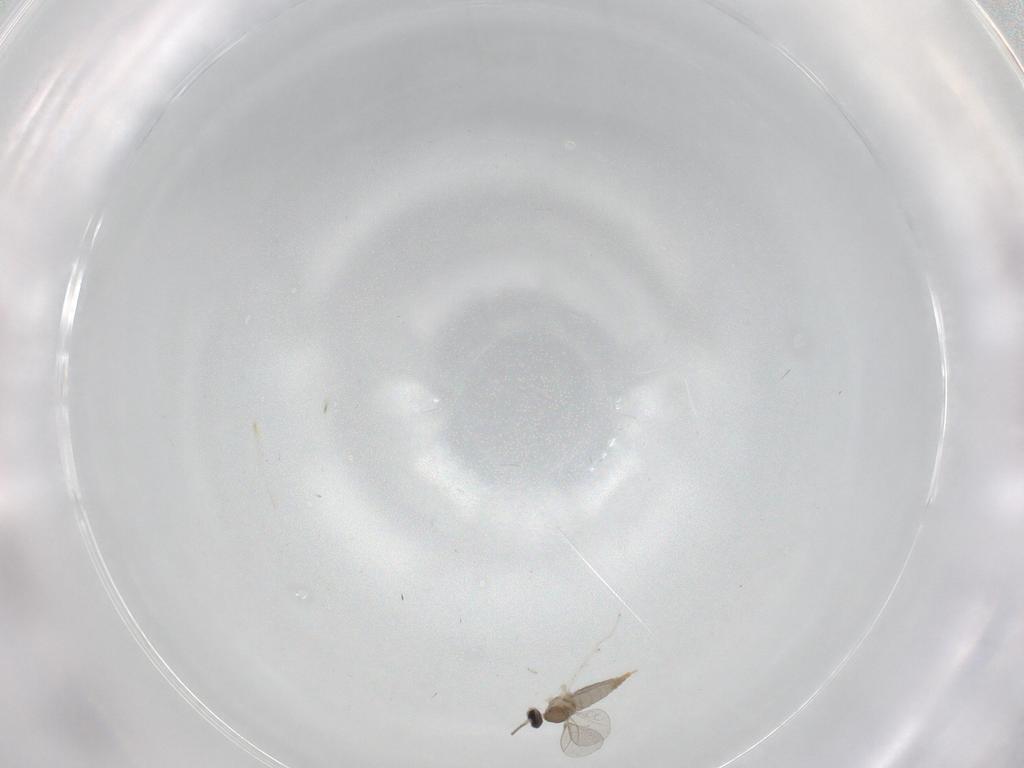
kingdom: Animalia
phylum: Arthropoda
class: Insecta
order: Diptera
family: Cecidomyiidae
